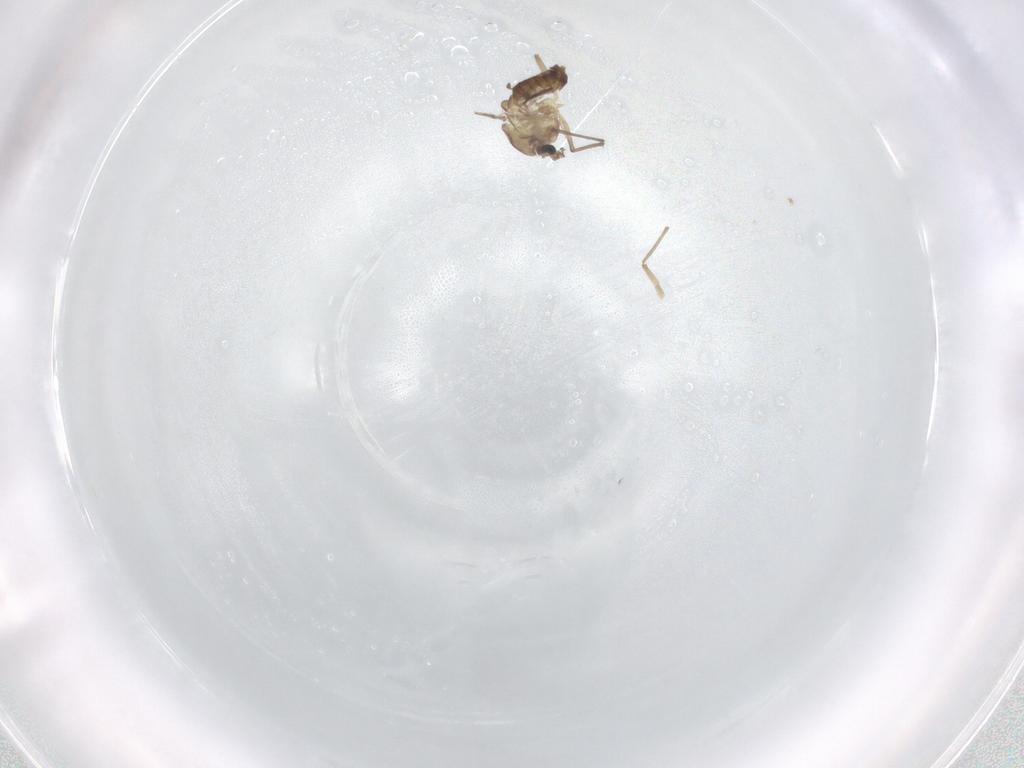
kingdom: Animalia
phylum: Arthropoda
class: Insecta
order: Diptera
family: Chironomidae
